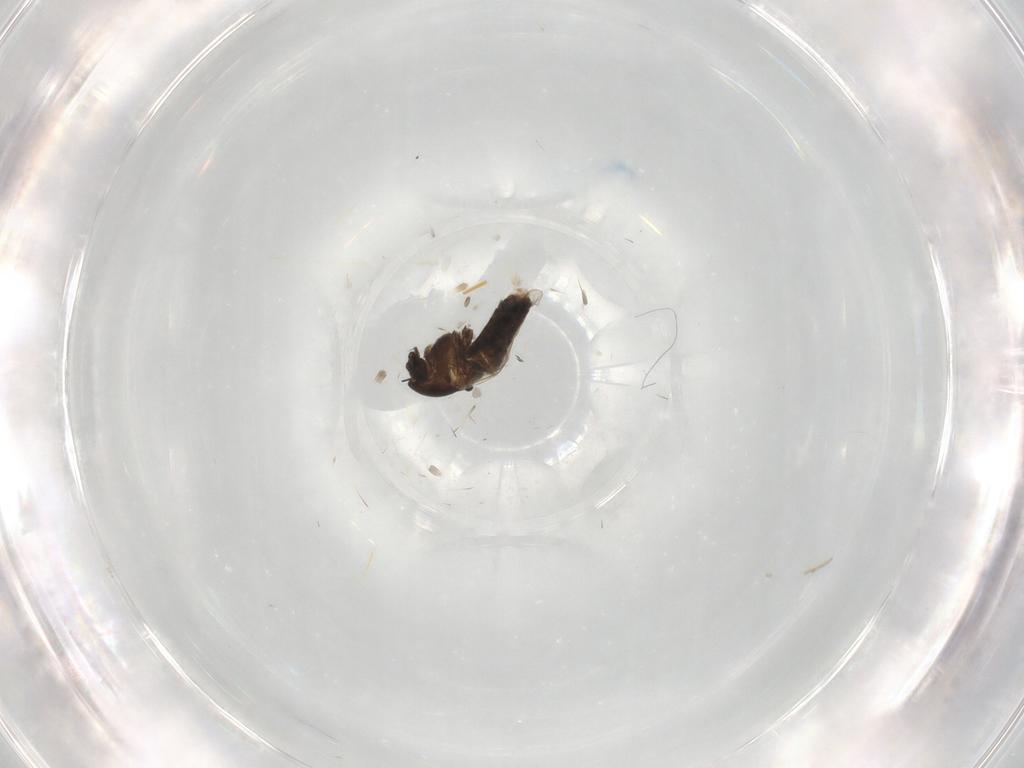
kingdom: Animalia
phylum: Arthropoda
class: Insecta
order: Diptera
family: Chironomidae
